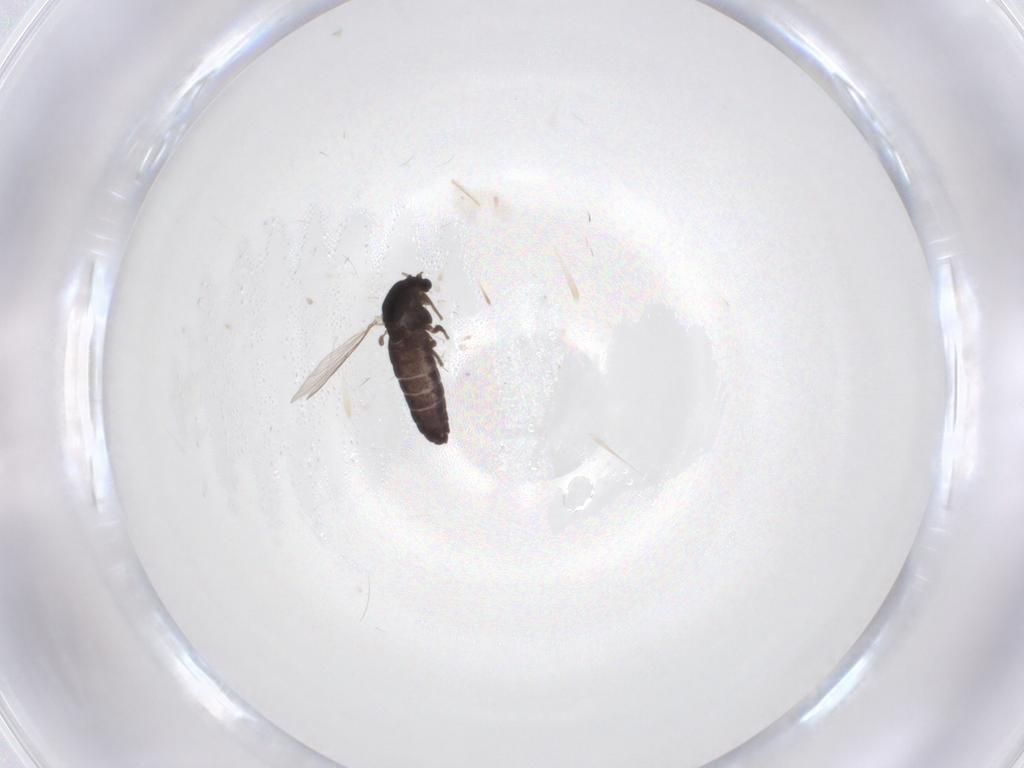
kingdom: Animalia
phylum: Arthropoda
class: Insecta
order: Diptera
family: Chironomidae
